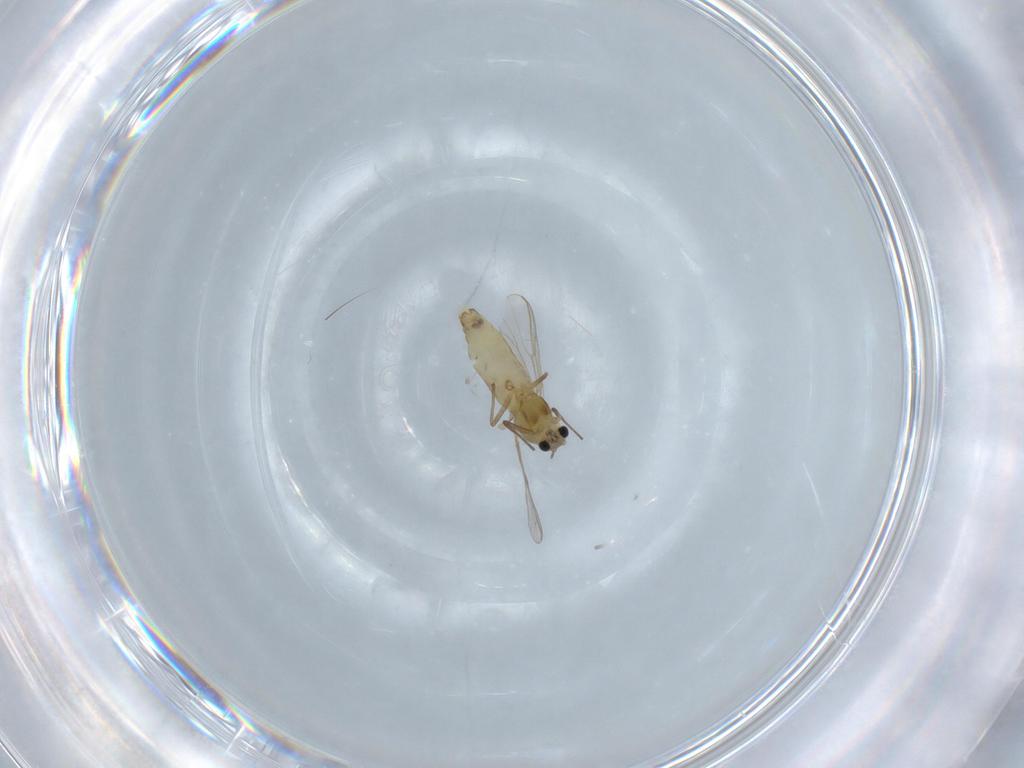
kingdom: Animalia
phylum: Arthropoda
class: Insecta
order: Diptera
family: Chironomidae
